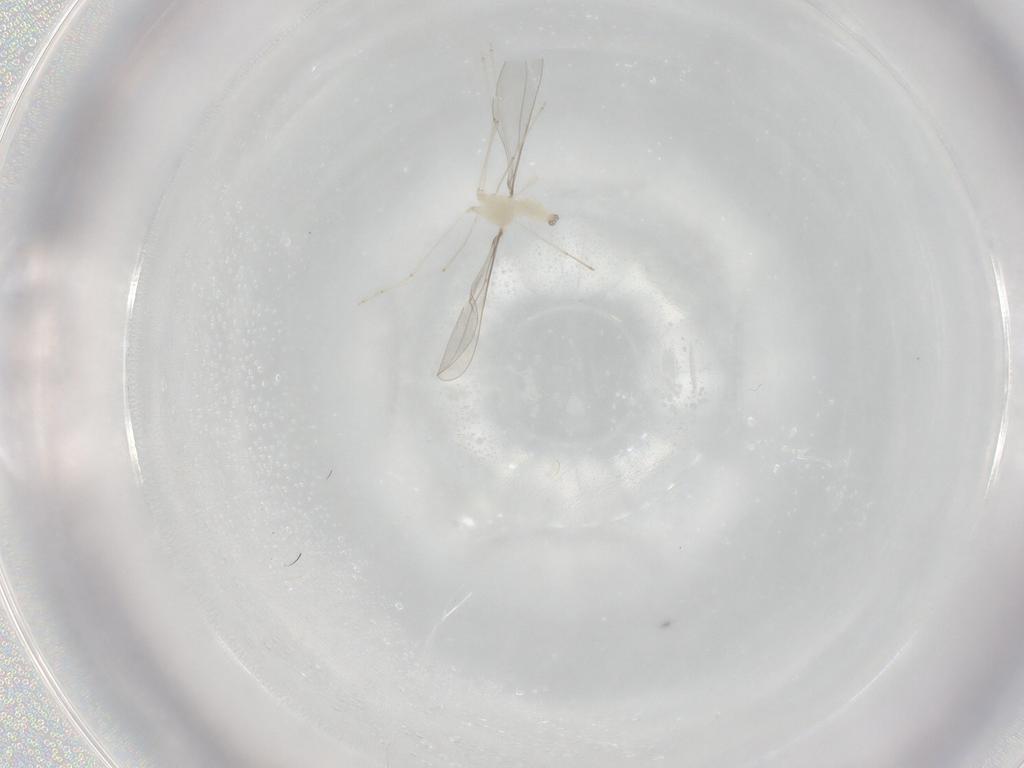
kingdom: Animalia
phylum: Arthropoda
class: Insecta
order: Diptera
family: Cecidomyiidae
